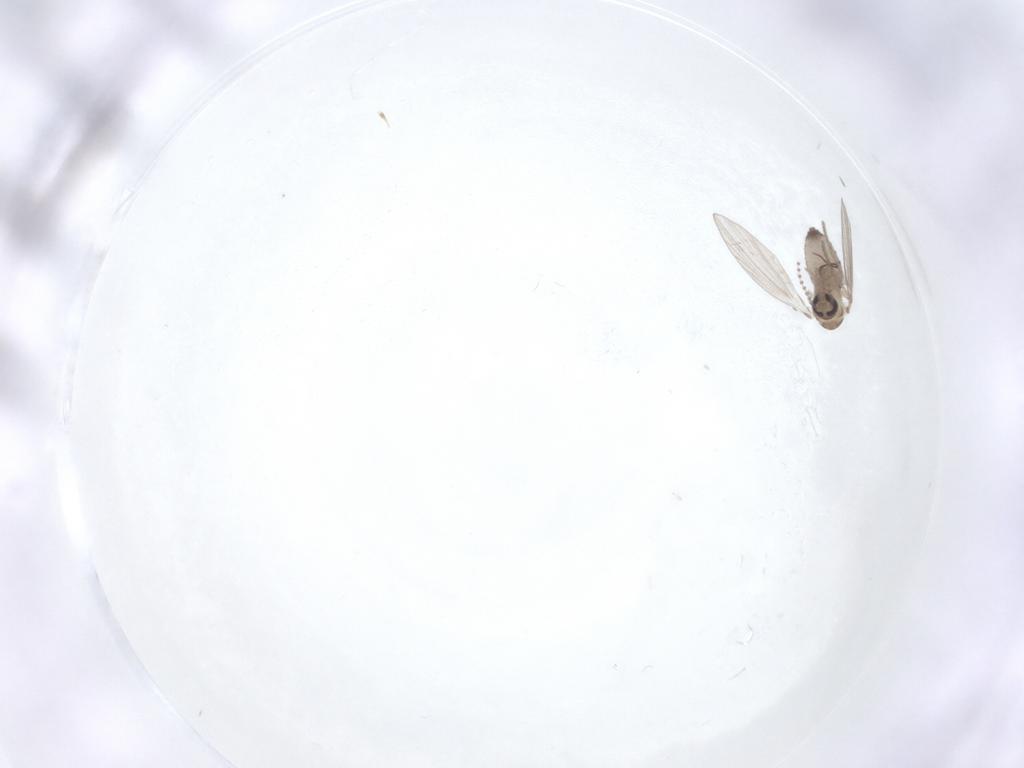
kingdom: Animalia
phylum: Arthropoda
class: Insecta
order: Diptera
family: Psychodidae
